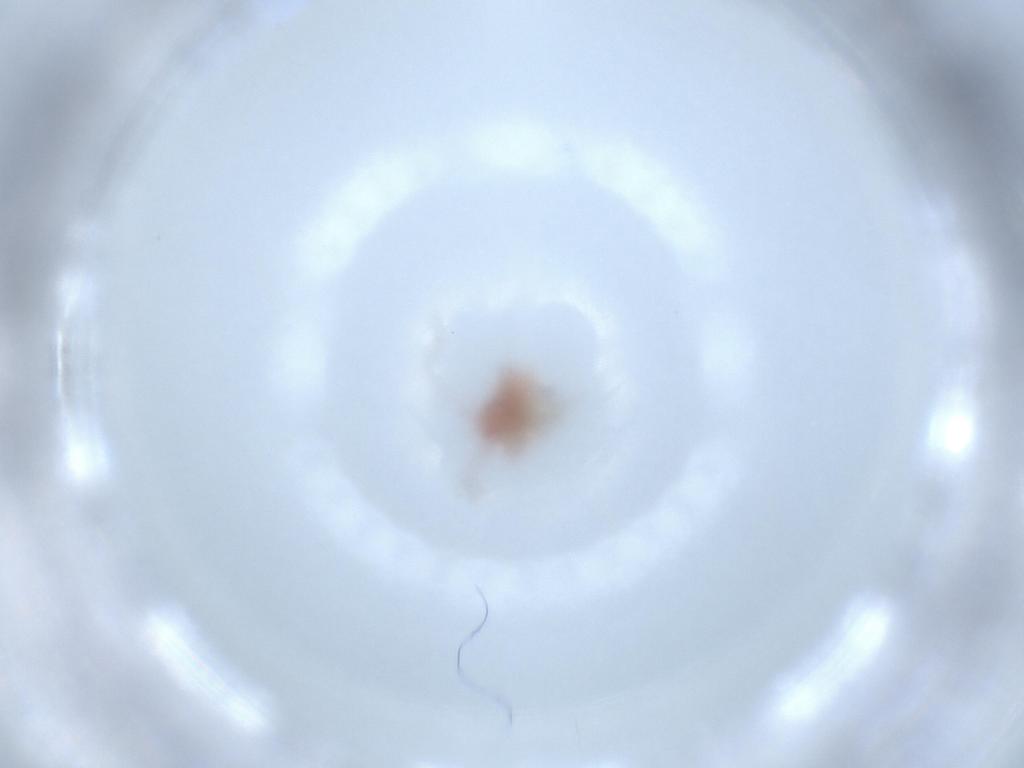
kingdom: Animalia
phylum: Arthropoda
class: Insecta
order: Hemiptera
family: Miridae
